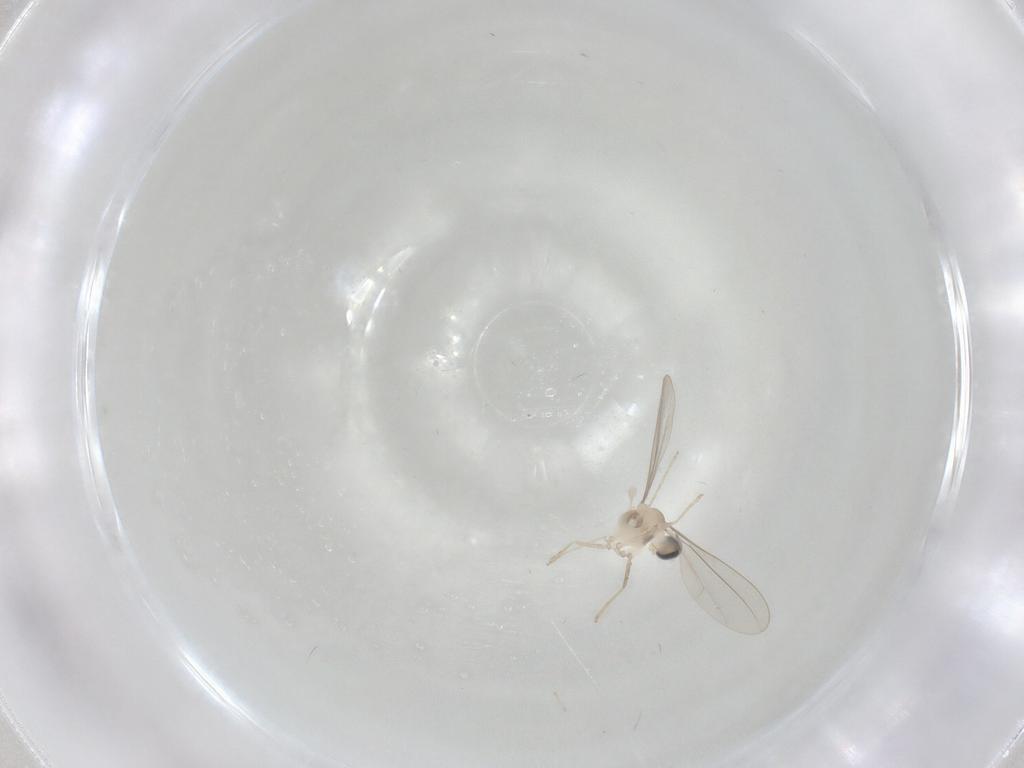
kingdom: Animalia
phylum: Arthropoda
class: Insecta
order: Diptera
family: Cecidomyiidae
